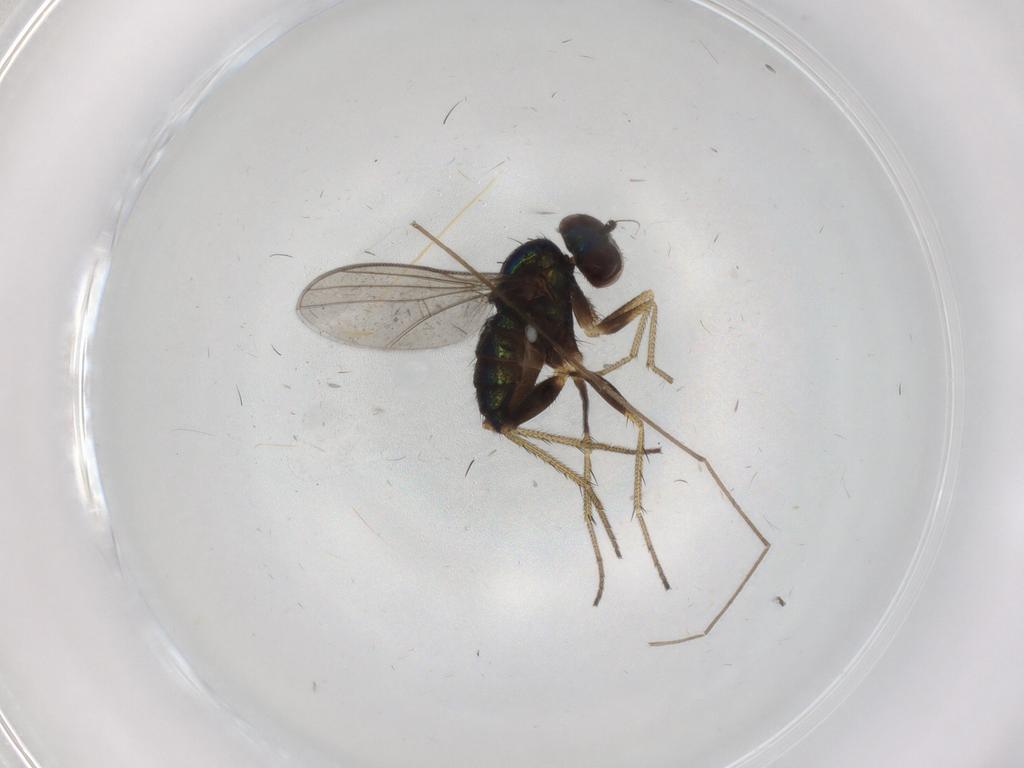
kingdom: Animalia
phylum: Arthropoda
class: Insecta
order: Diptera
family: Chironomidae
